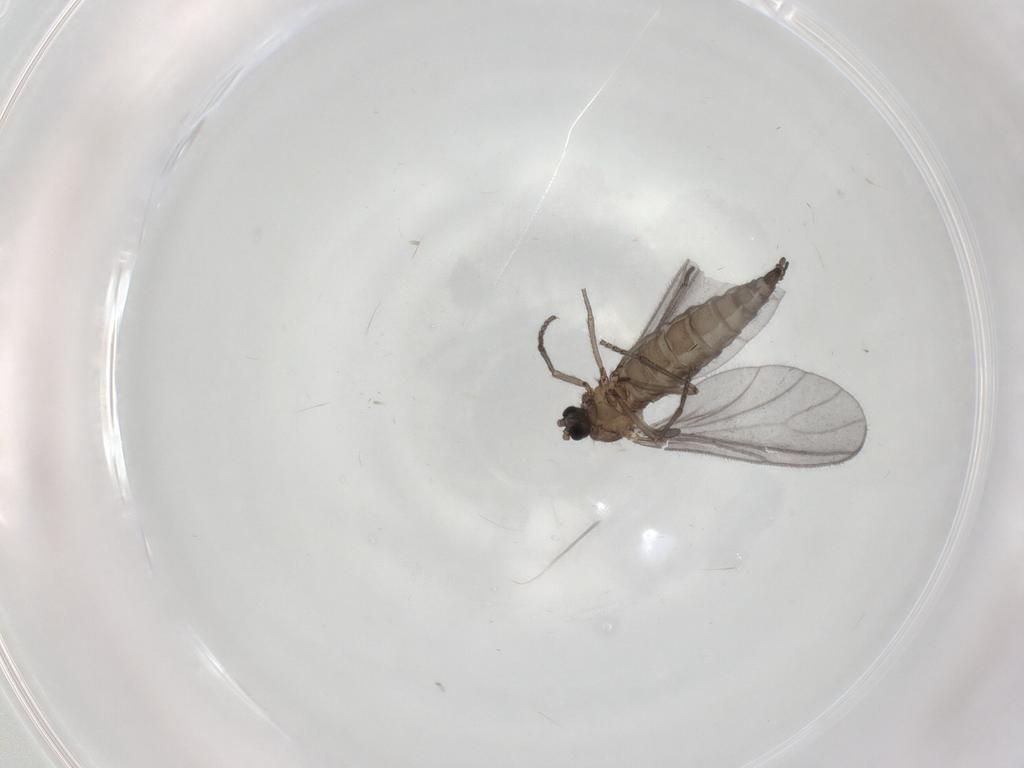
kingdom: Animalia
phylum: Arthropoda
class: Insecta
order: Diptera
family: Sciaridae
